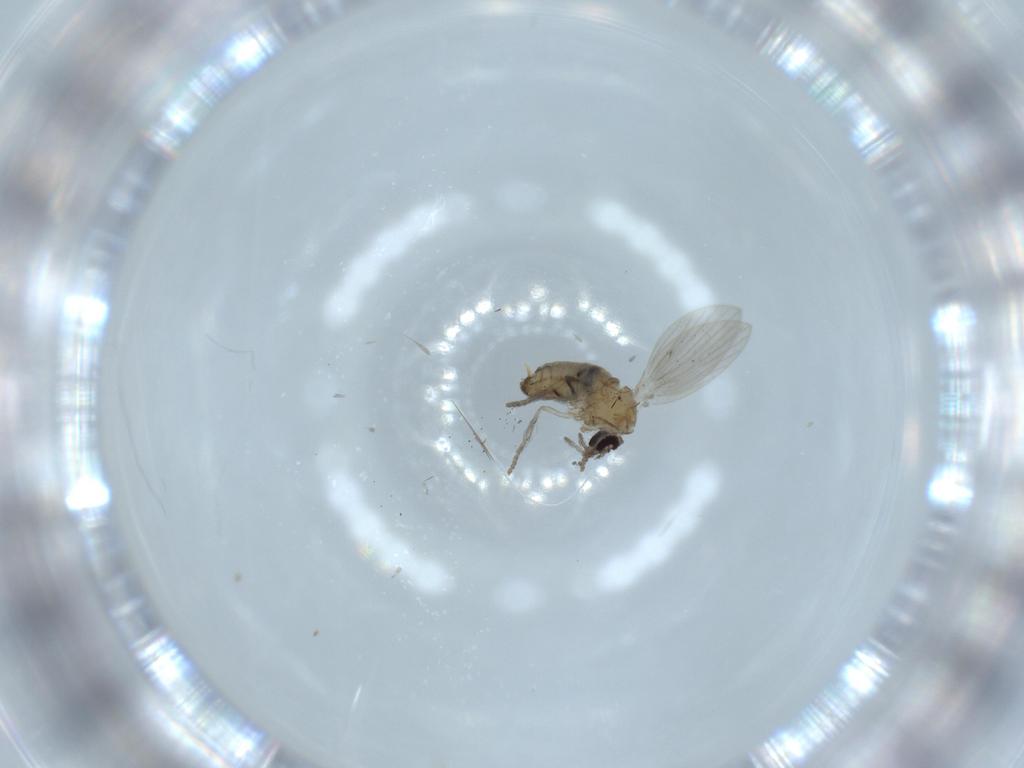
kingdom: Animalia
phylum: Arthropoda
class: Insecta
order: Diptera
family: Psychodidae
